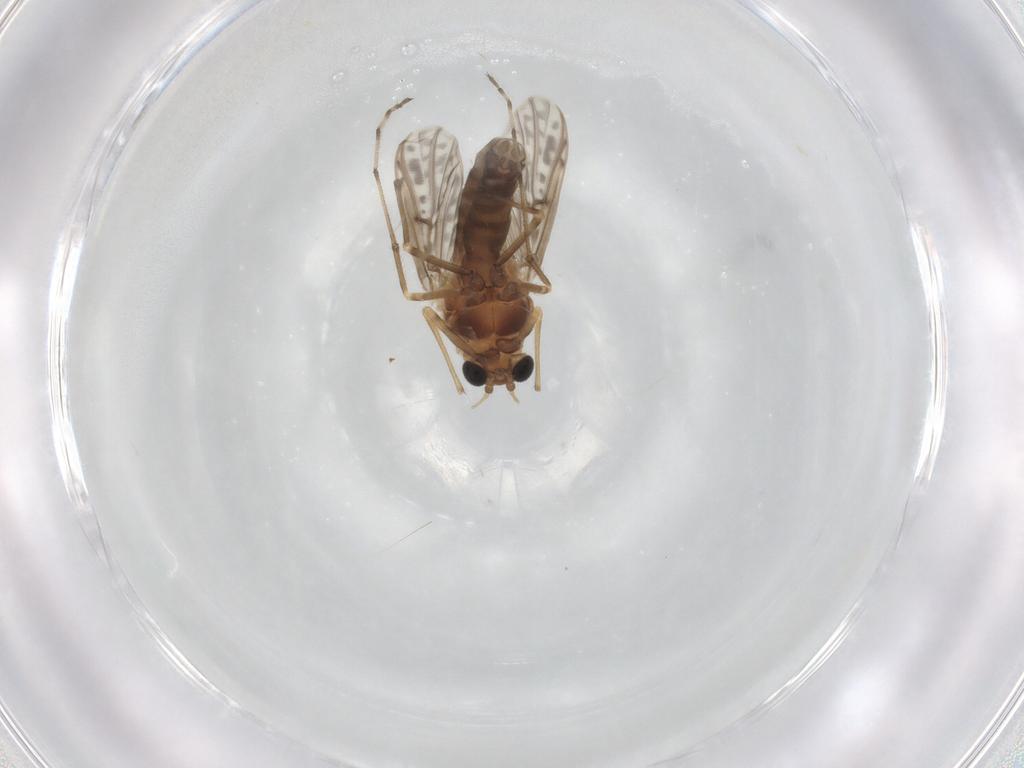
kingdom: Animalia
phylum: Arthropoda
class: Insecta
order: Diptera
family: Chironomidae
